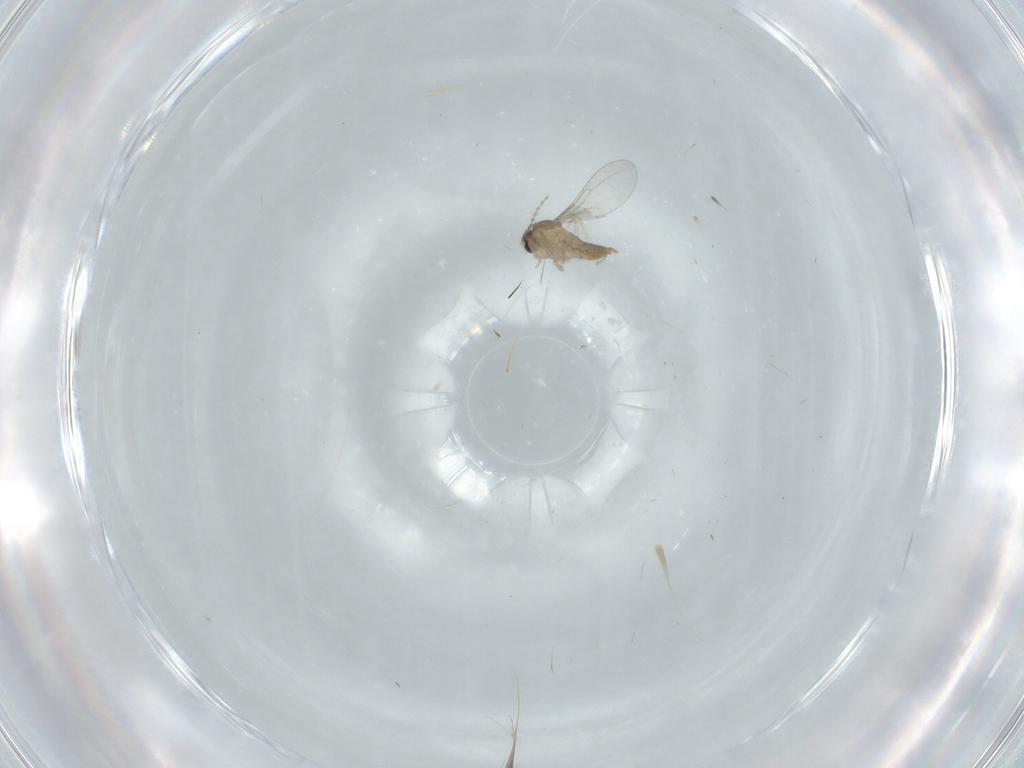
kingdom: Animalia
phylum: Arthropoda
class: Insecta
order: Diptera
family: Cecidomyiidae
